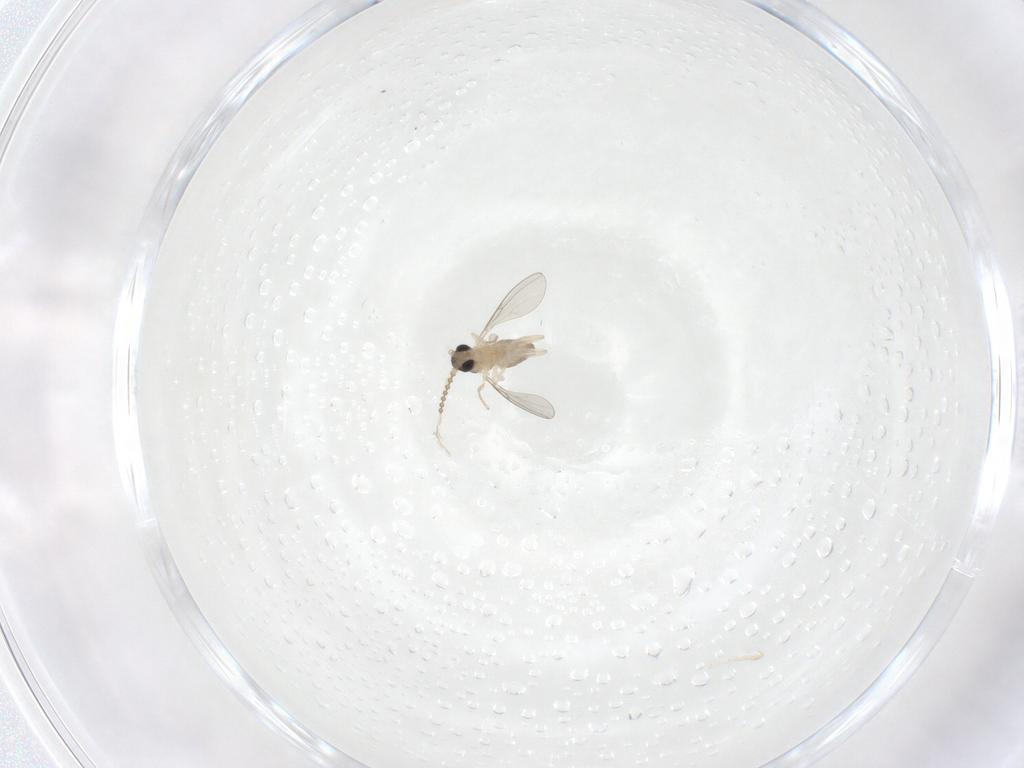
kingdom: Animalia
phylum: Arthropoda
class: Insecta
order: Diptera
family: Cecidomyiidae
